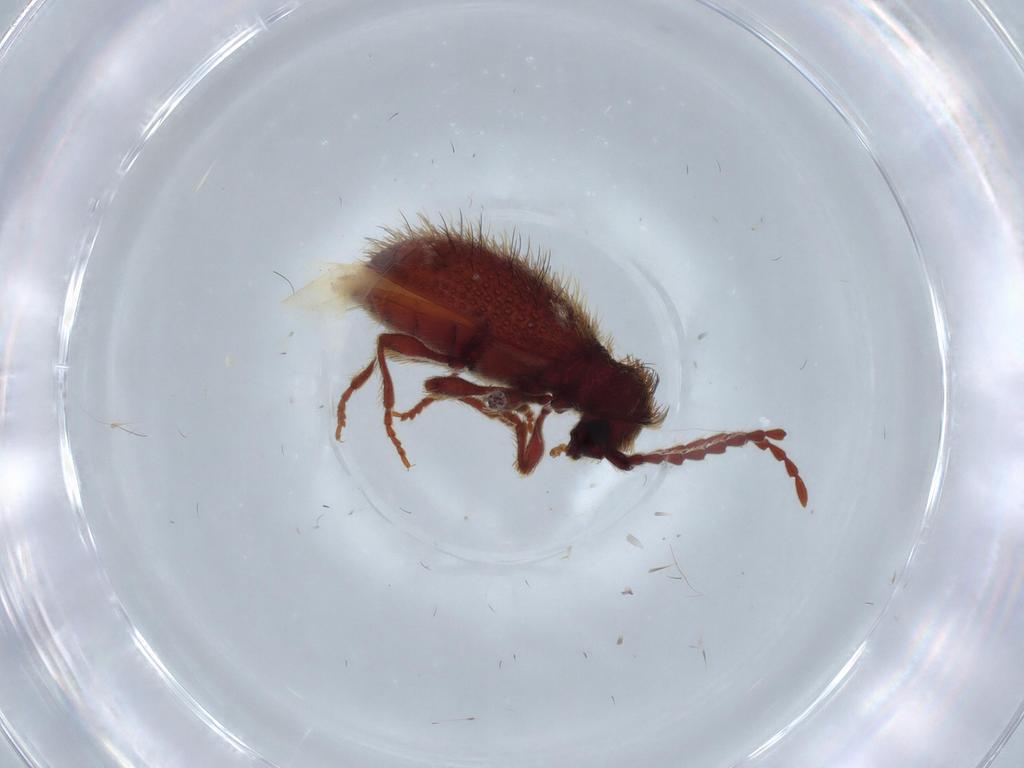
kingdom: Animalia
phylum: Arthropoda
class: Insecta
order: Coleoptera
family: Ptinidae
